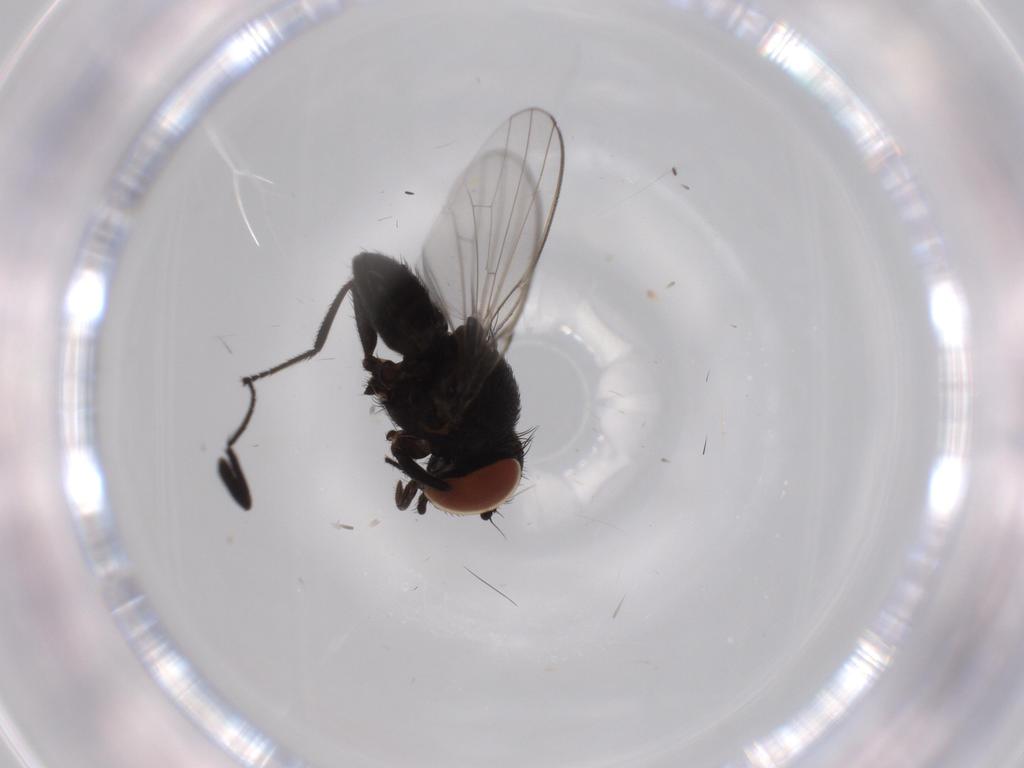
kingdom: Animalia
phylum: Arthropoda
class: Insecta
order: Diptera
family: Milichiidae
